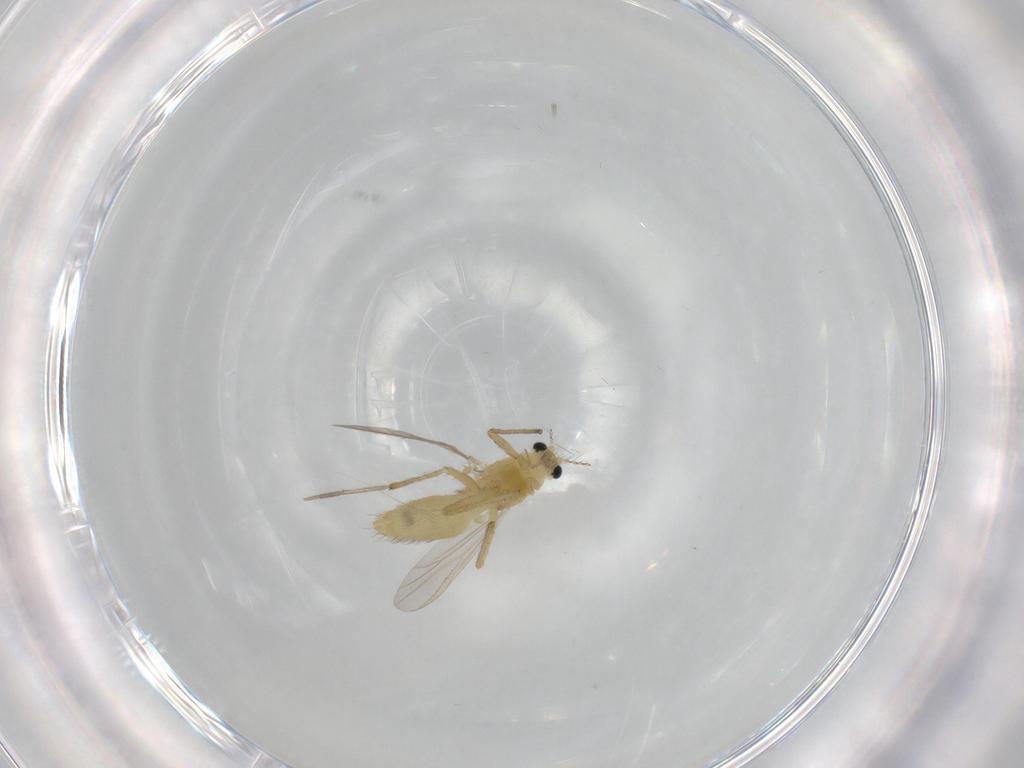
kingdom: Animalia
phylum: Arthropoda
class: Insecta
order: Diptera
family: Chironomidae
